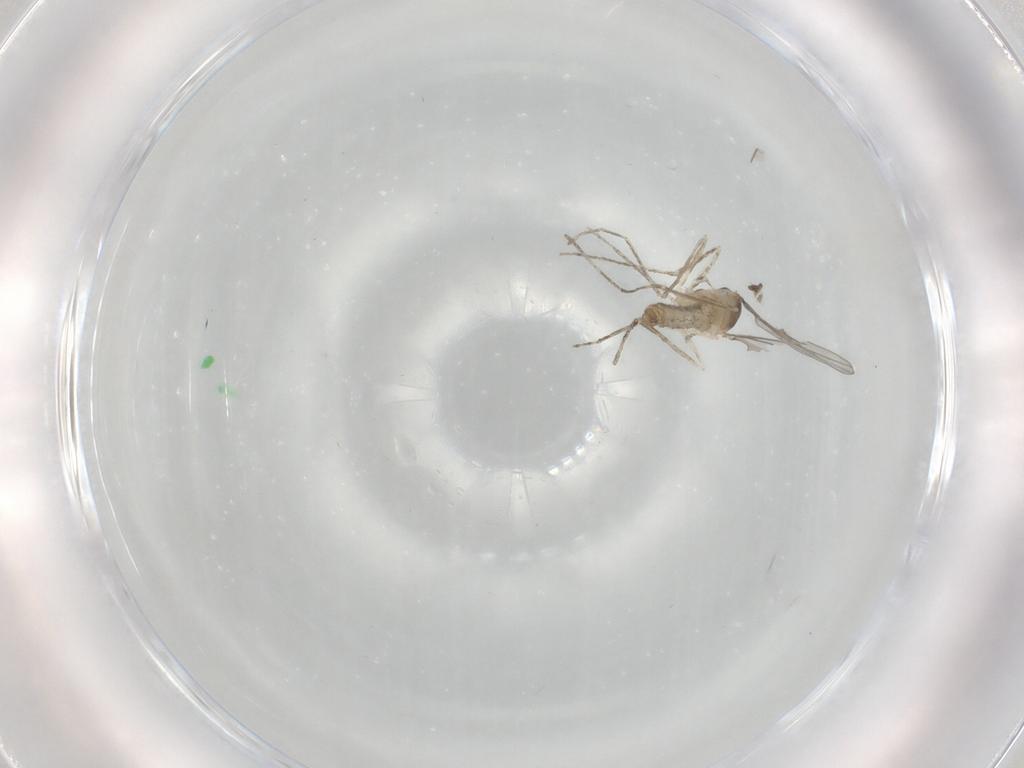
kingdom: Animalia
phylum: Arthropoda
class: Insecta
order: Diptera
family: Cecidomyiidae
